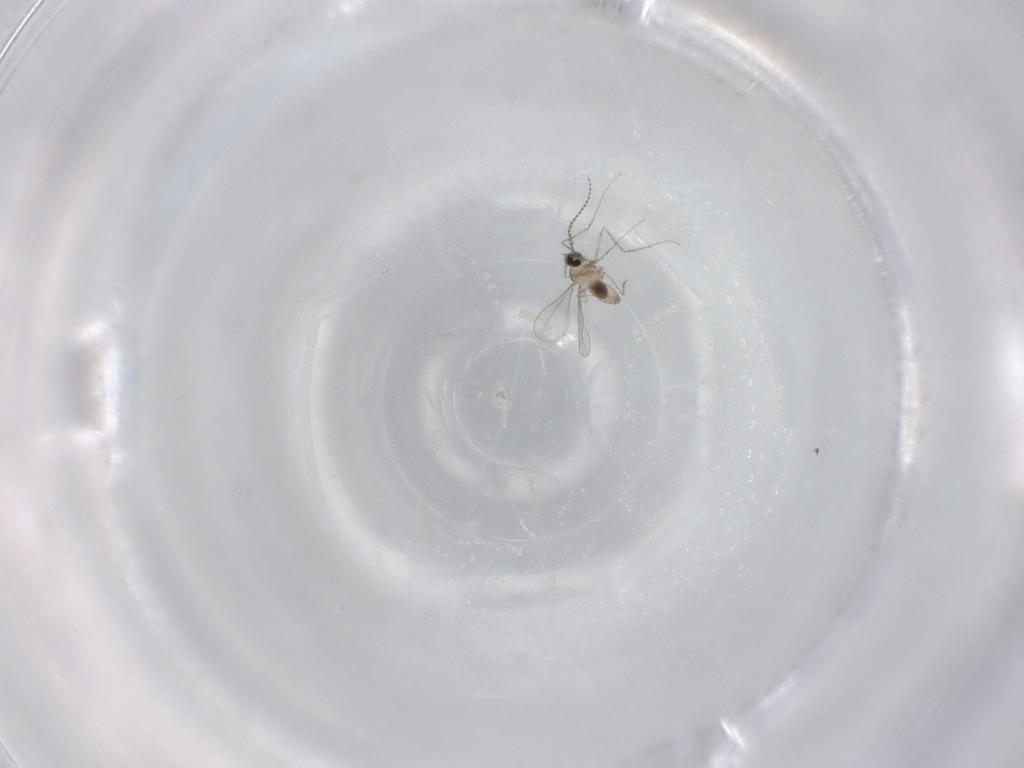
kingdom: Animalia
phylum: Arthropoda
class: Insecta
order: Diptera
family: Cecidomyiidae
